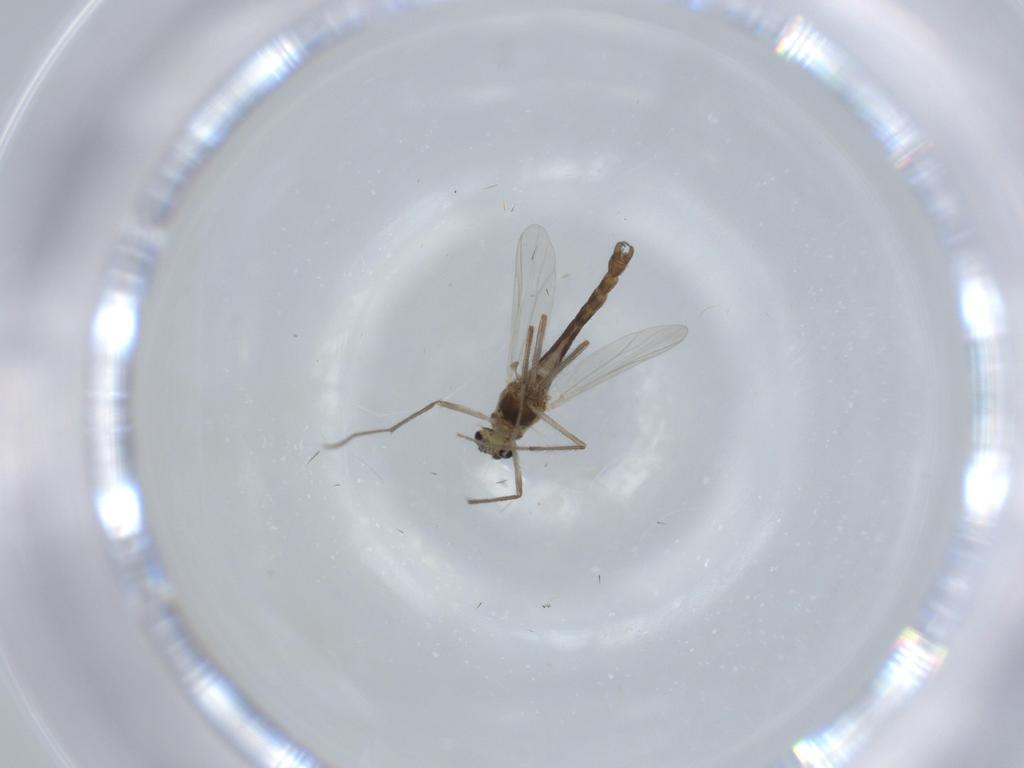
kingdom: Animalia
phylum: Arthropoda
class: Insecta
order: Diptera
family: Chironomidae
